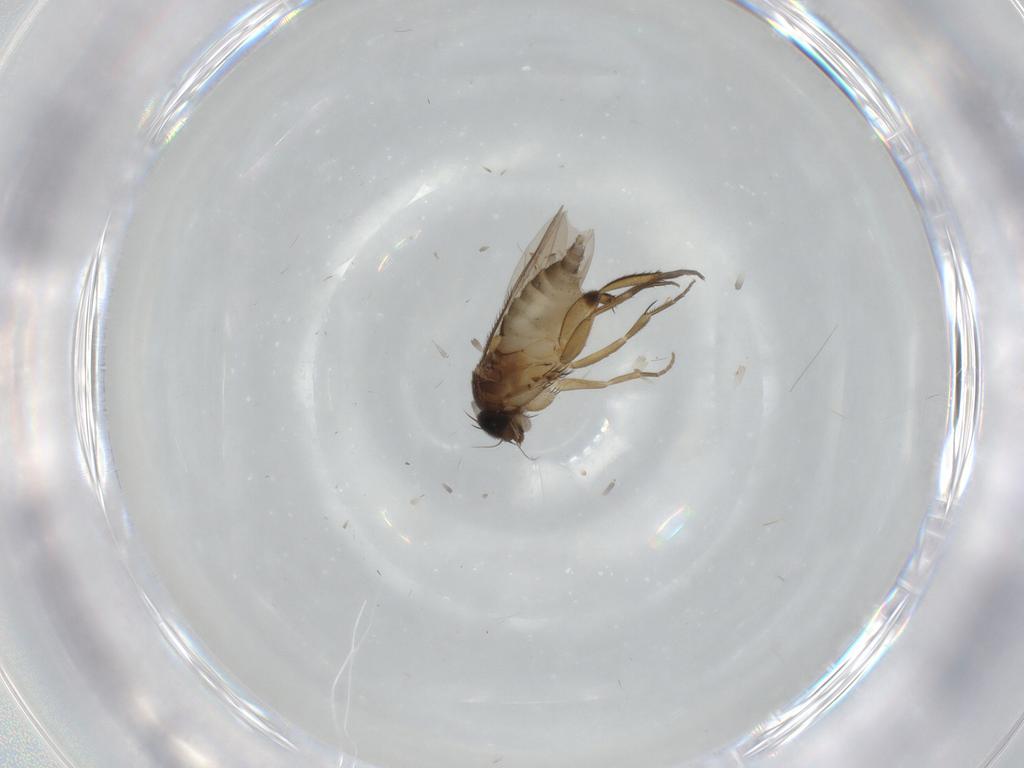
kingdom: Animalia
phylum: Arthropoda
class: Insecta
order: Diptera
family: Phoridae
